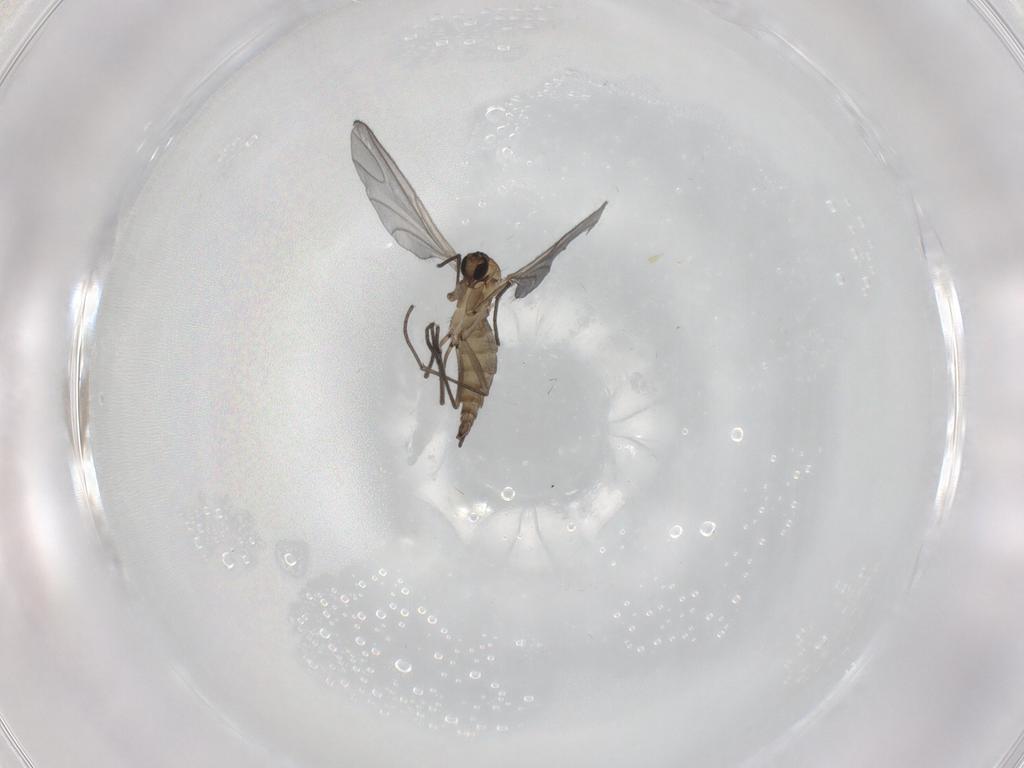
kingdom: Animalia
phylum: Arthropoda
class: Insecta
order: Diptera
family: Sciaridae
